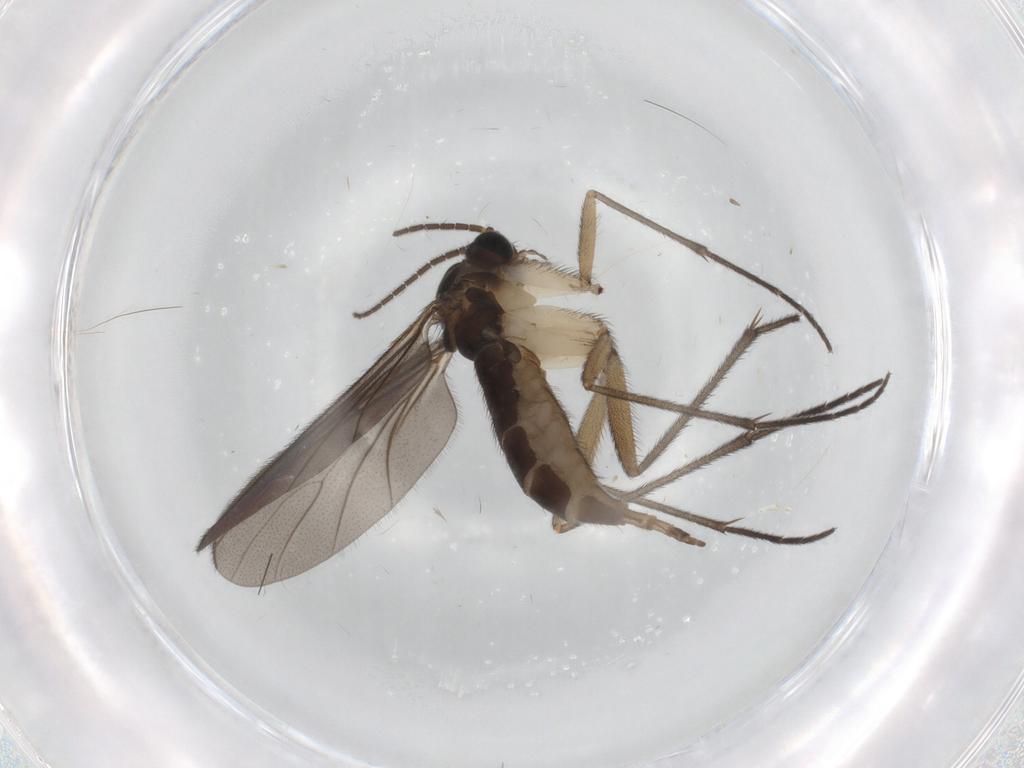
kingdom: Animalia
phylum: Arthropoda
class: Insecta
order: Diptera
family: Sciaridae
